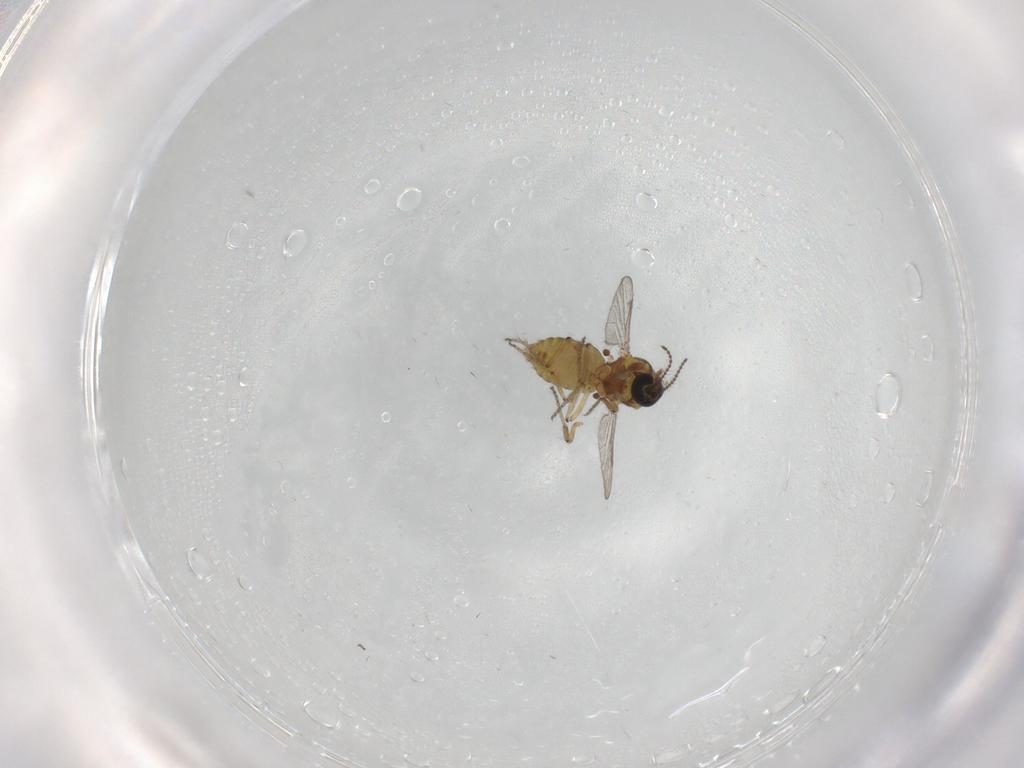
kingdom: Animalia
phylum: Arthropoda
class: Insecta
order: Diptera
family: Ceratopogonidae
